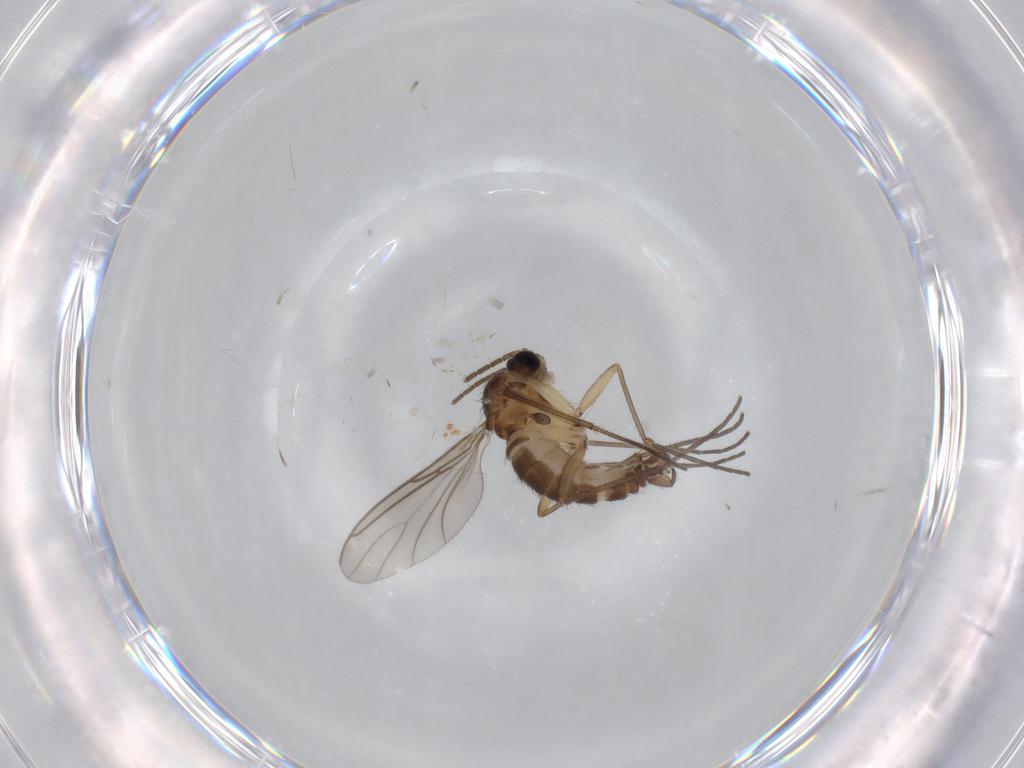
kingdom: Animalia
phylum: Arthropoda
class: Insecta
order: Diptera
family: Sciaridae
